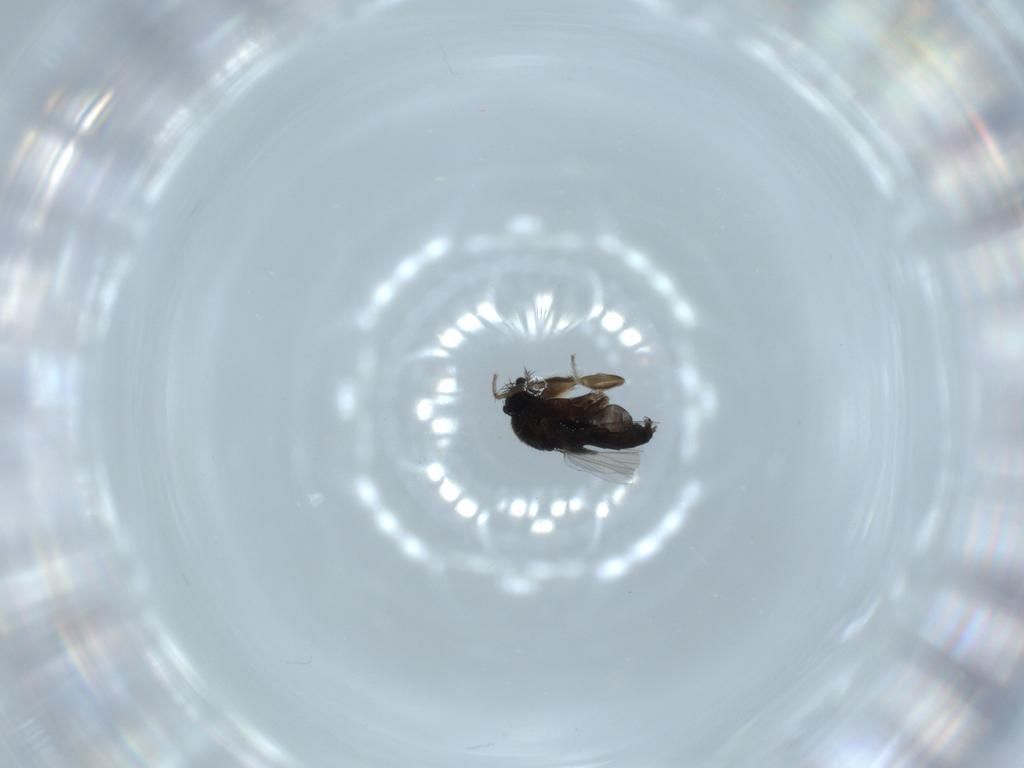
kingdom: Animalia
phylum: Arthropoda
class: Insecta
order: Diptera
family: Phoridae
